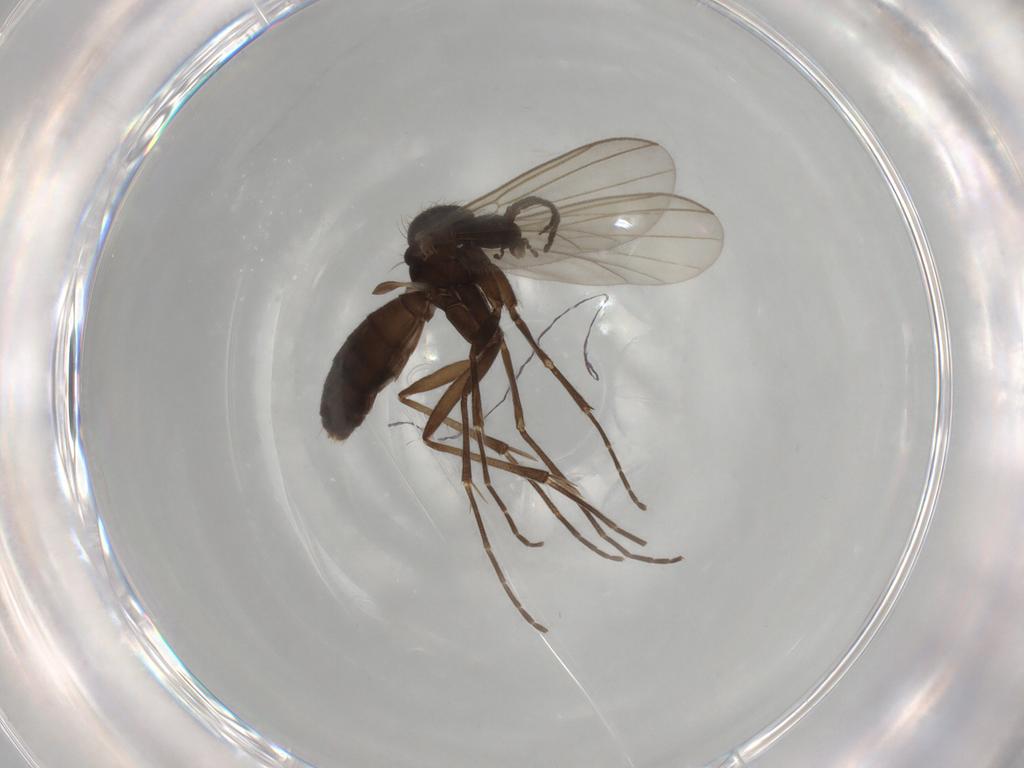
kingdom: Animalia
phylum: Arthropoda
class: Insecta
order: Diptera
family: Mycetophilidae
